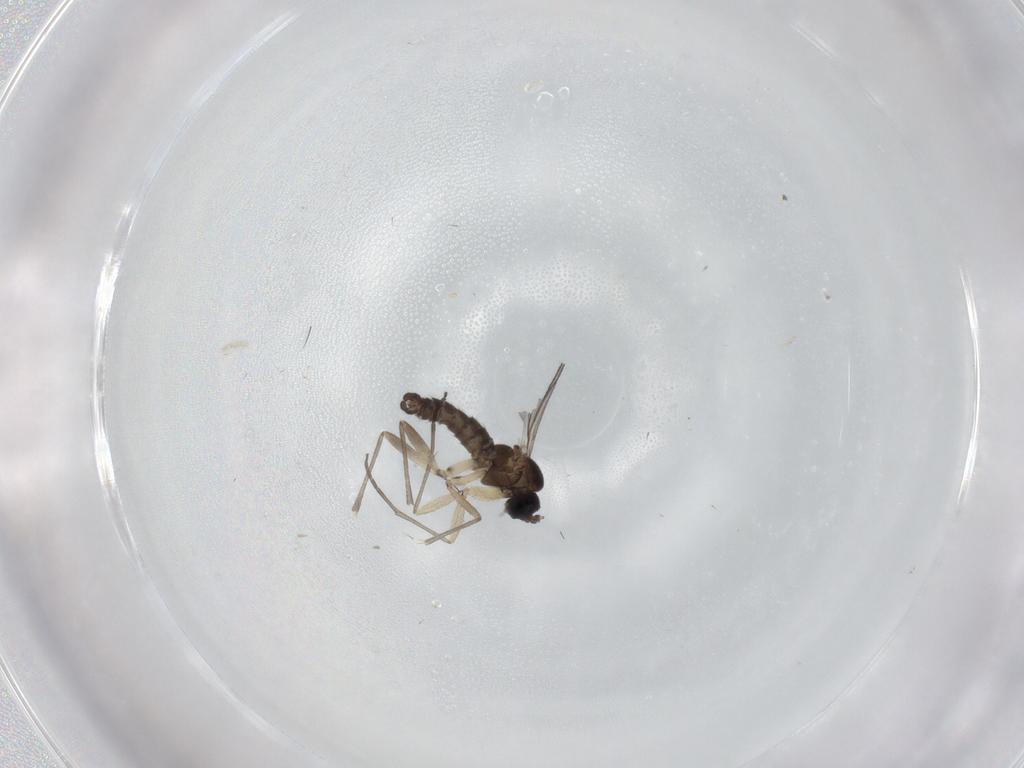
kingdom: Animalia
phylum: Arthropoda
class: Insecta
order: Diptera
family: Sciaridae
